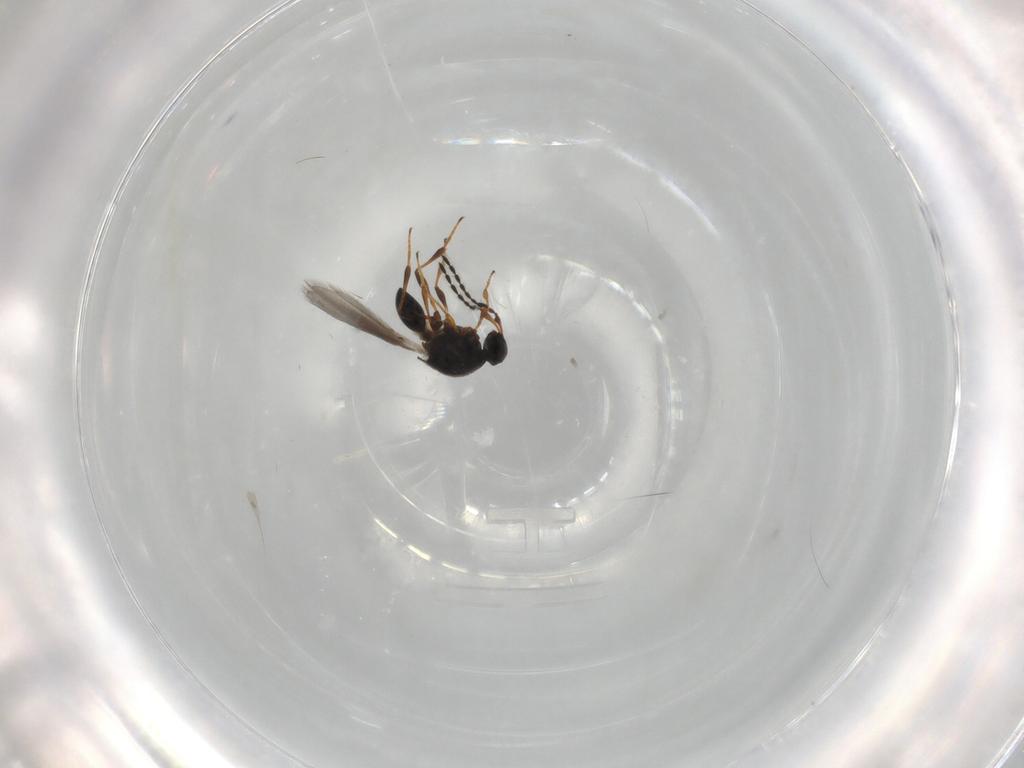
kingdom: Animalia
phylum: Arthropoda
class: Insecta
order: Hymenoptera
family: Platygastridae
